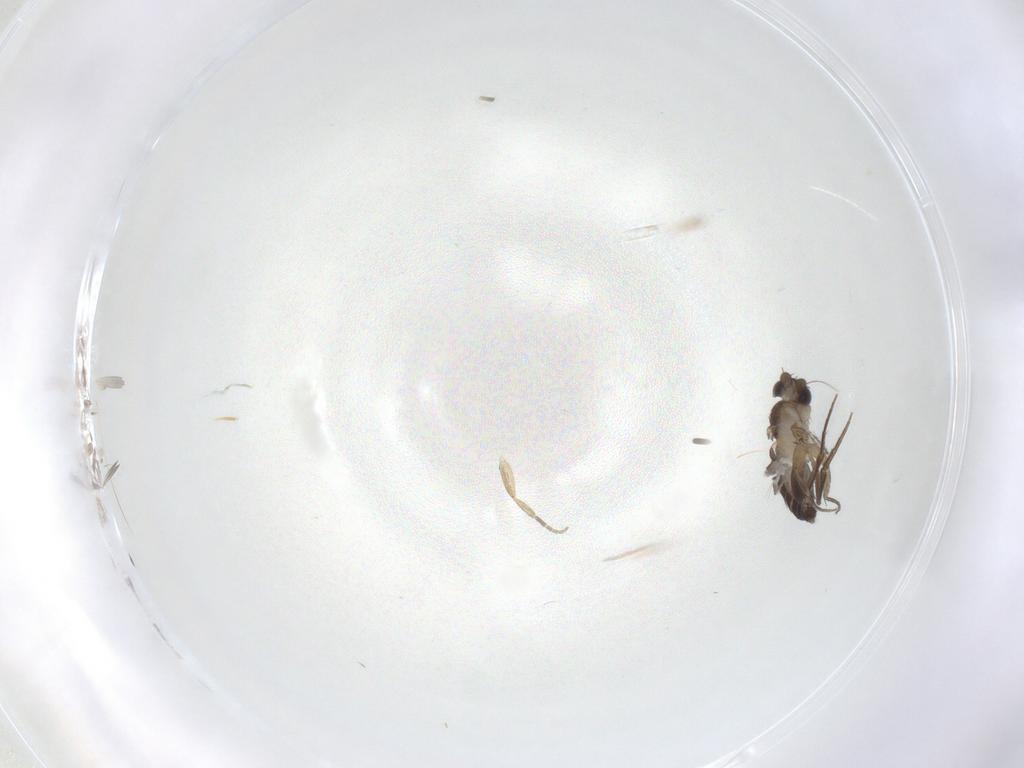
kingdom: Animalia
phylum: Arthropoda
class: Insecta
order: Diptera
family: Phoridae
